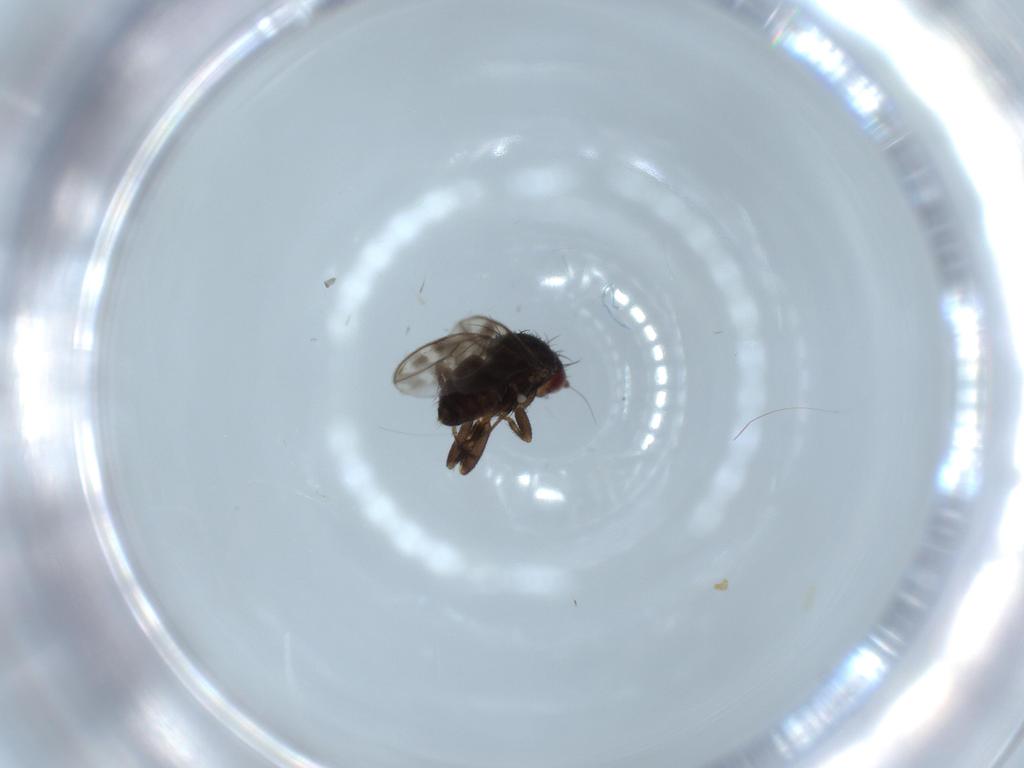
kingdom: Animalia
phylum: Arthropoda
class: Insecta
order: Diptera
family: Sphaeroceridae
